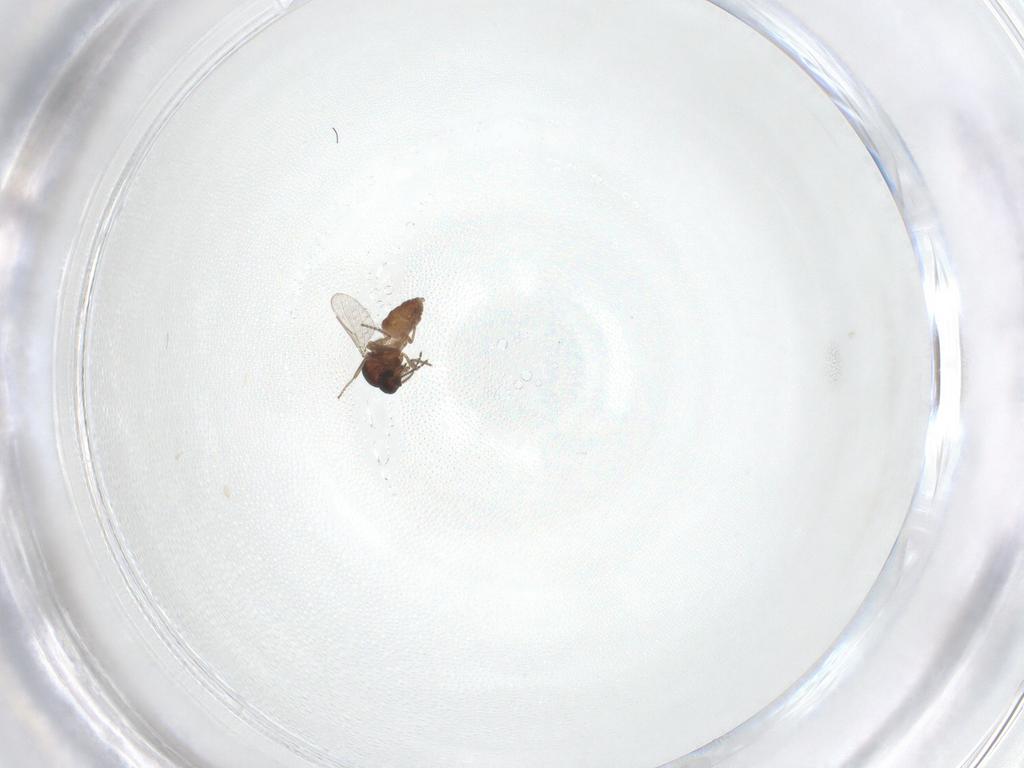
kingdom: Animalia
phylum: Arthropoda
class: Insecta
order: Diptera
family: Ceratopogonidae
